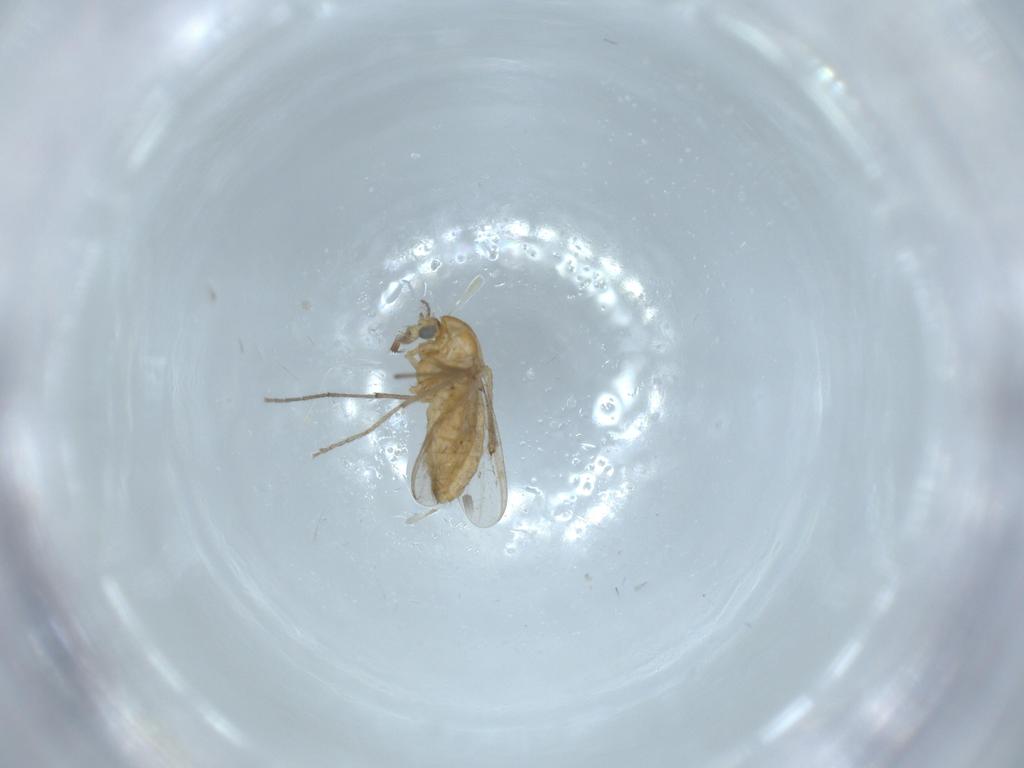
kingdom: Animalia
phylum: Arthropoda
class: Insecta
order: Diptera
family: Chironomidae
